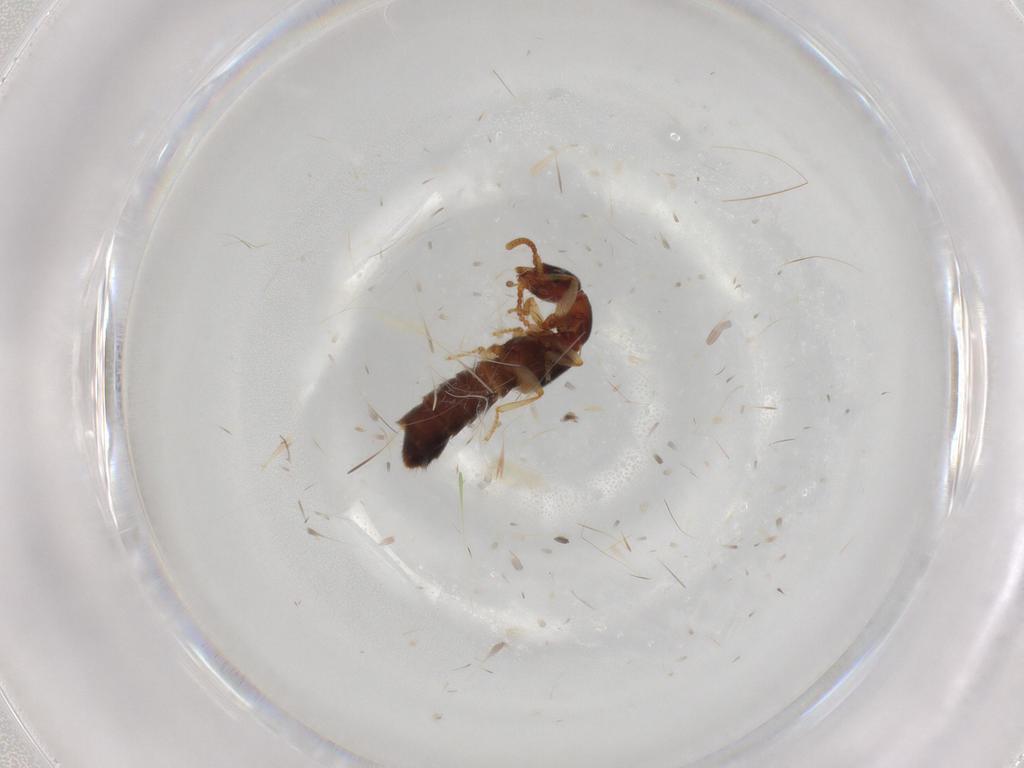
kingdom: Animalia
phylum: Arthropoda
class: Insecta
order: Coleoptera
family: Staphylinidae
